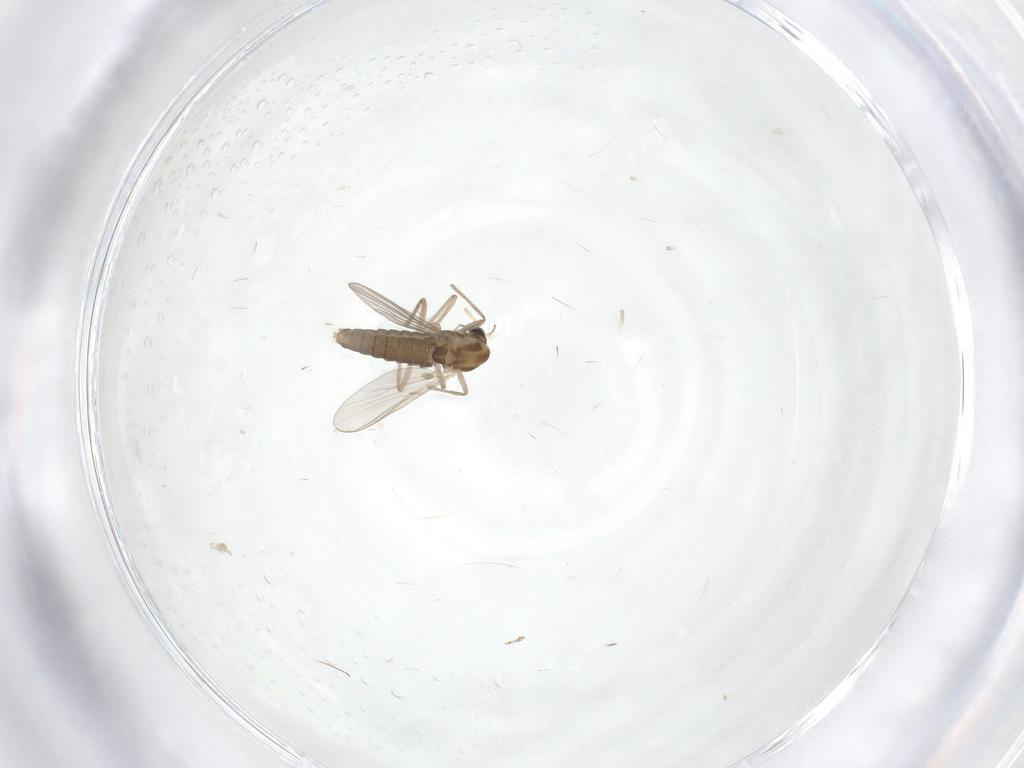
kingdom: Animalia
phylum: Arthropoda
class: Insecta
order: Diptera
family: Chironomidae
